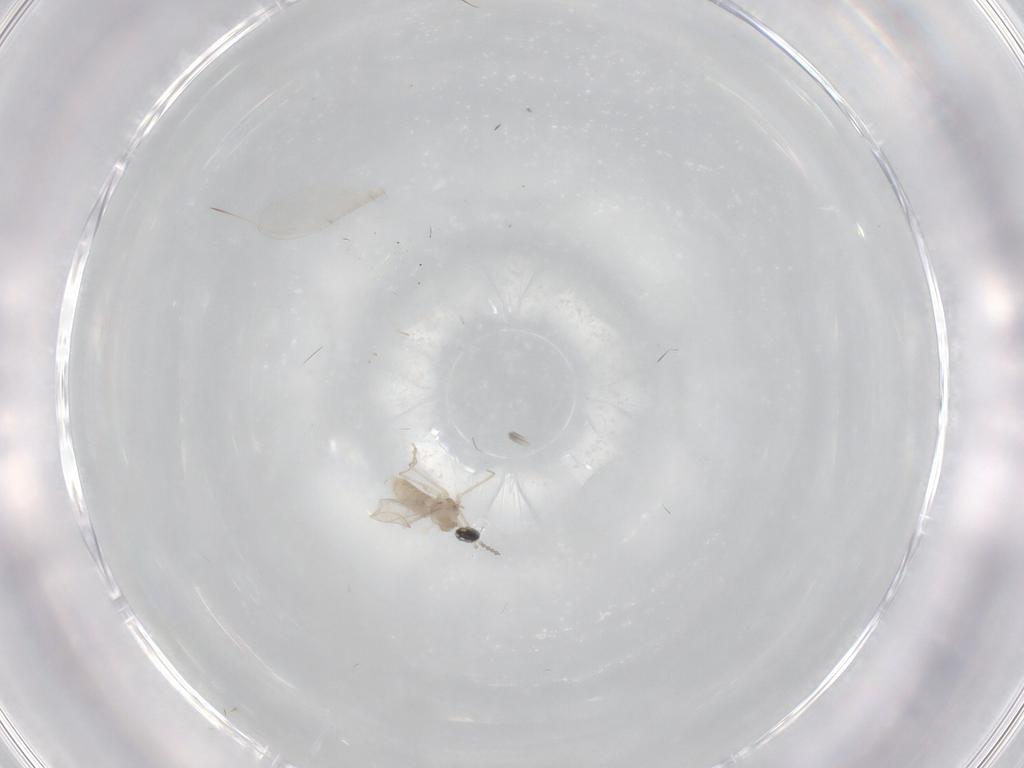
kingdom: Animalia
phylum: Arthropoda
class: Insecta
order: Diptera
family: Cecidomyiidae
